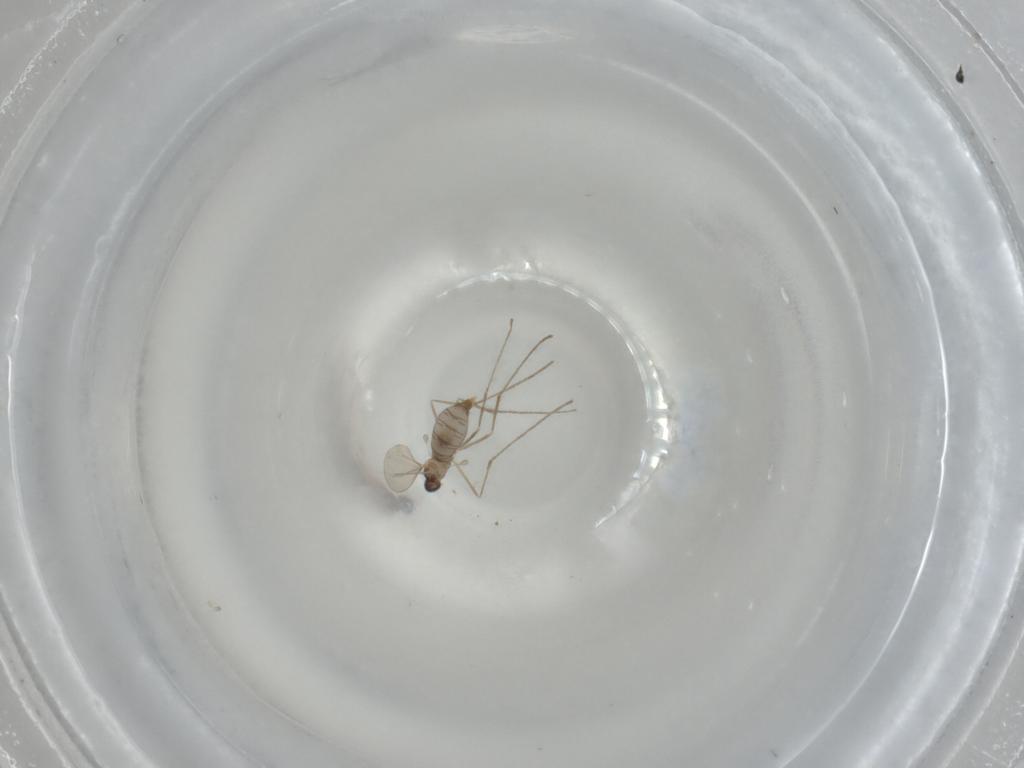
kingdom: Animalia
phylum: Arthropoda
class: Insecta
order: Diptera
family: Cecidomyiidae
